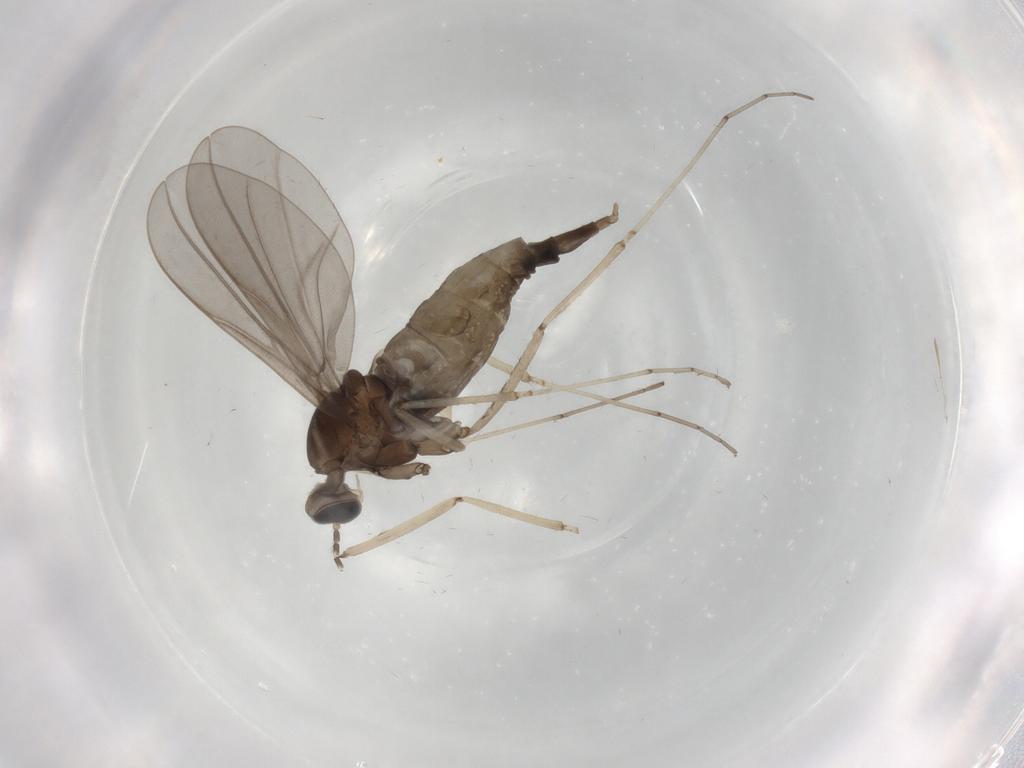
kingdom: Animalia
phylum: Arthropoda
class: Insecta
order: Diptera
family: Cecidomyiidae
